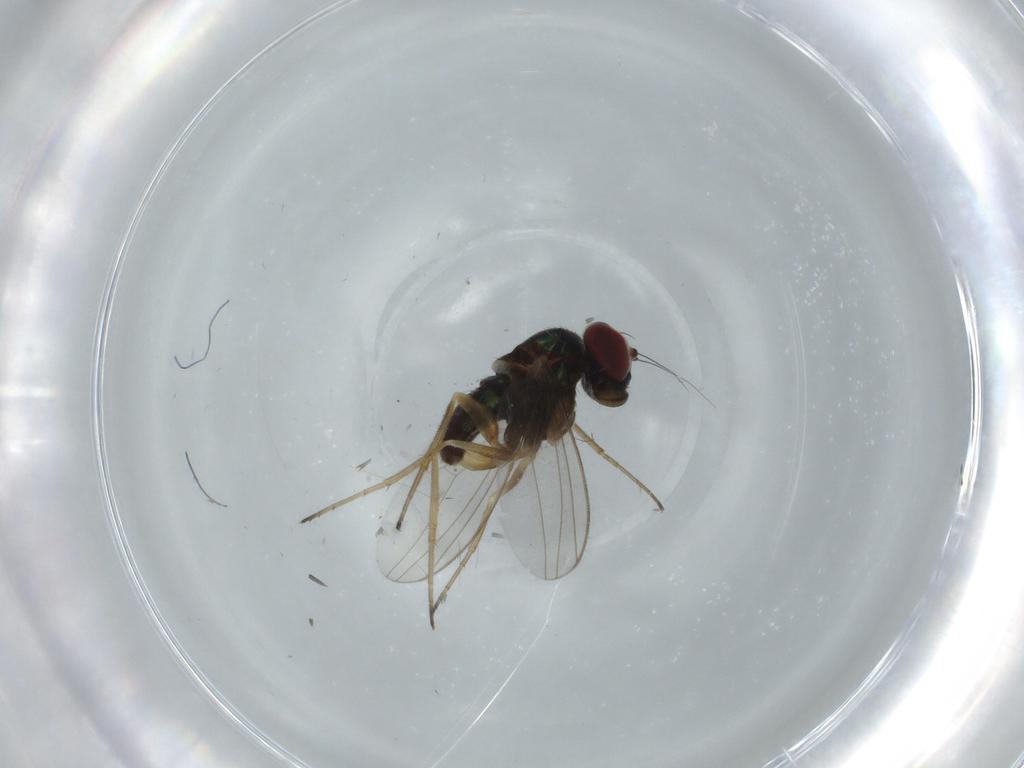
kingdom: Animalia
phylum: Arthropoda
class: Insecta
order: Diptera
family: Dolichopodidae
